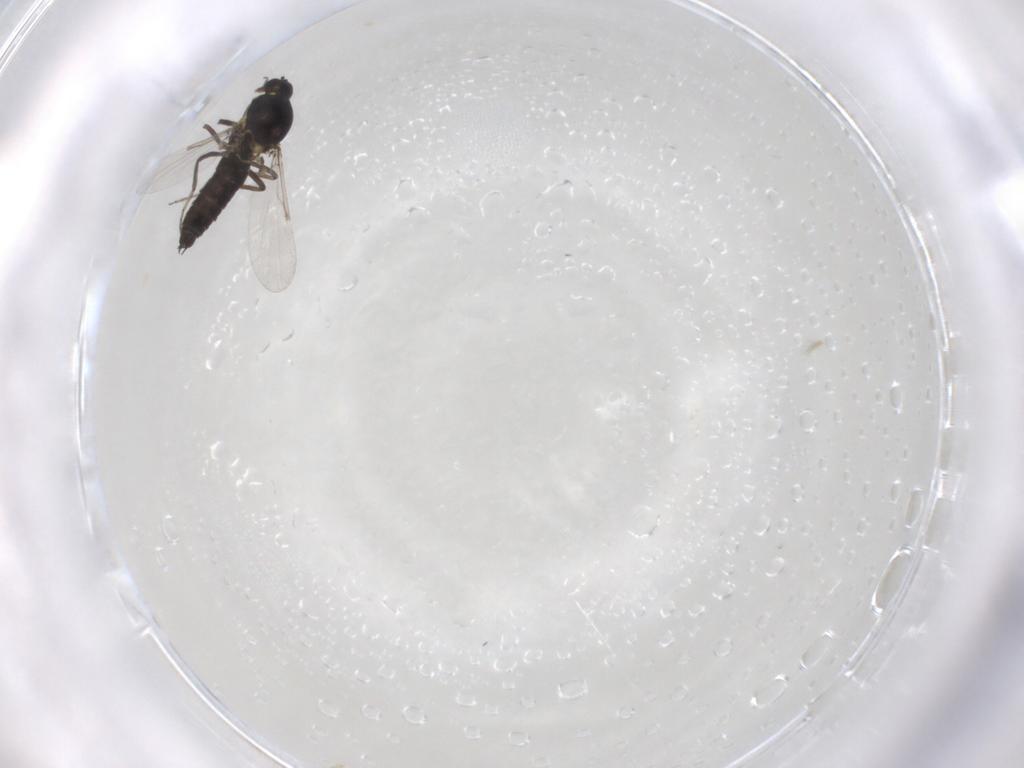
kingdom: Animalia
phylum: Arthropoda
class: Insecta
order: Diptera
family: Ceratopogonidae
